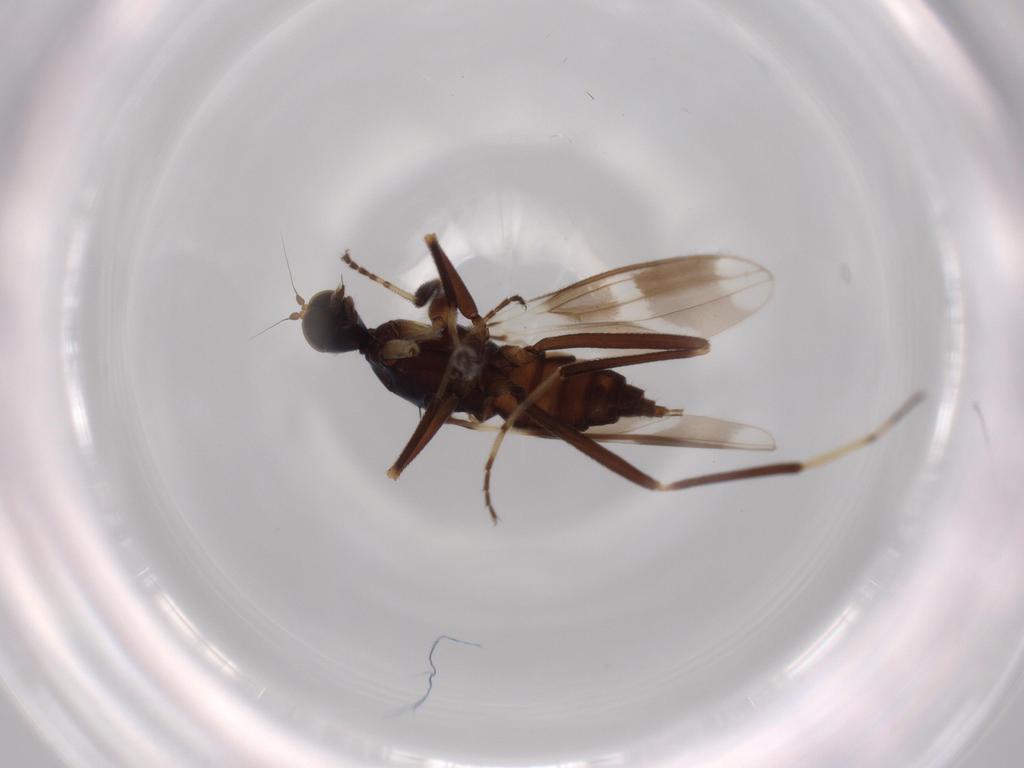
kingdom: Animalia
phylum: Arthropoda
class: Insecta
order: Diptera
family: Hybotidae
